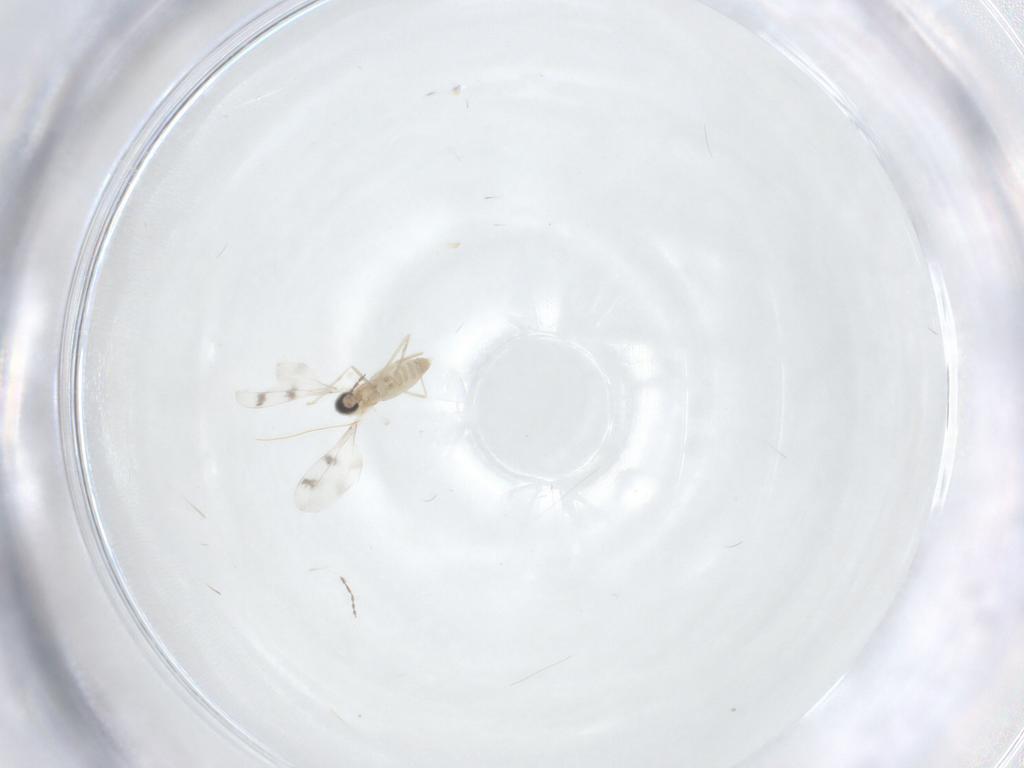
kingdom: Animalia
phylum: Arthropoda
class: Insecta
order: Diptera
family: Cecidomyiidae
